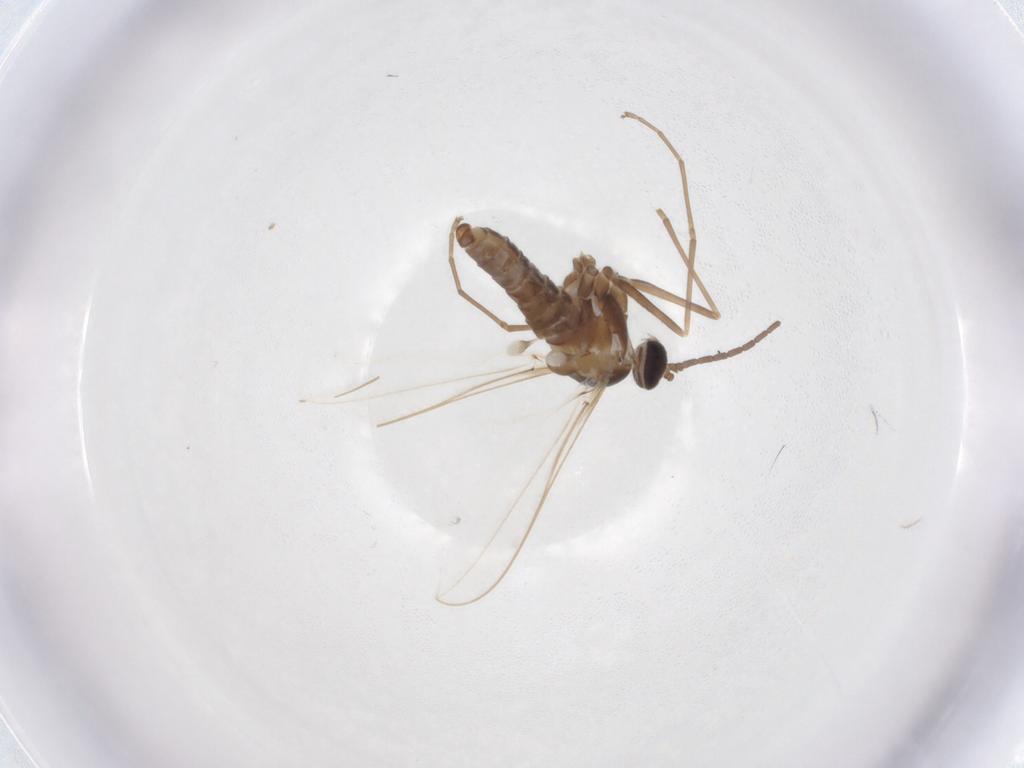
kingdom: Animalia
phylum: Arthropoda
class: Insecta
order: Diptera
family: Cecidomyiidae
